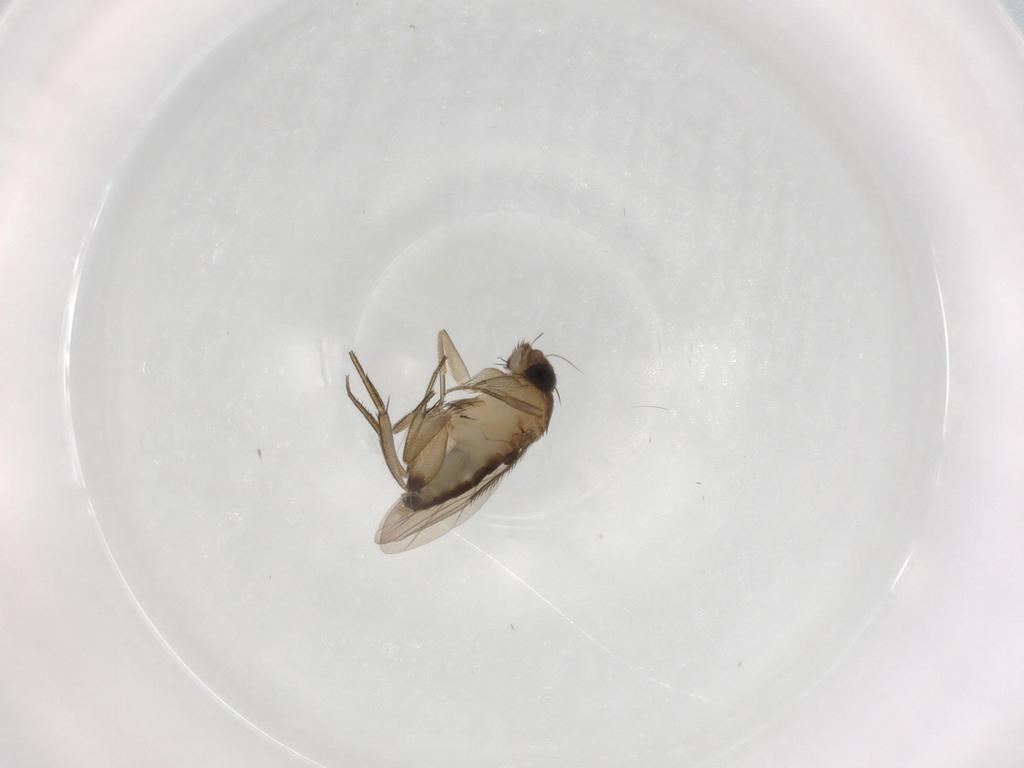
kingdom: Animalia
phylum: Arthropoda
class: Insecta
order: Diptera
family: Phoridae
